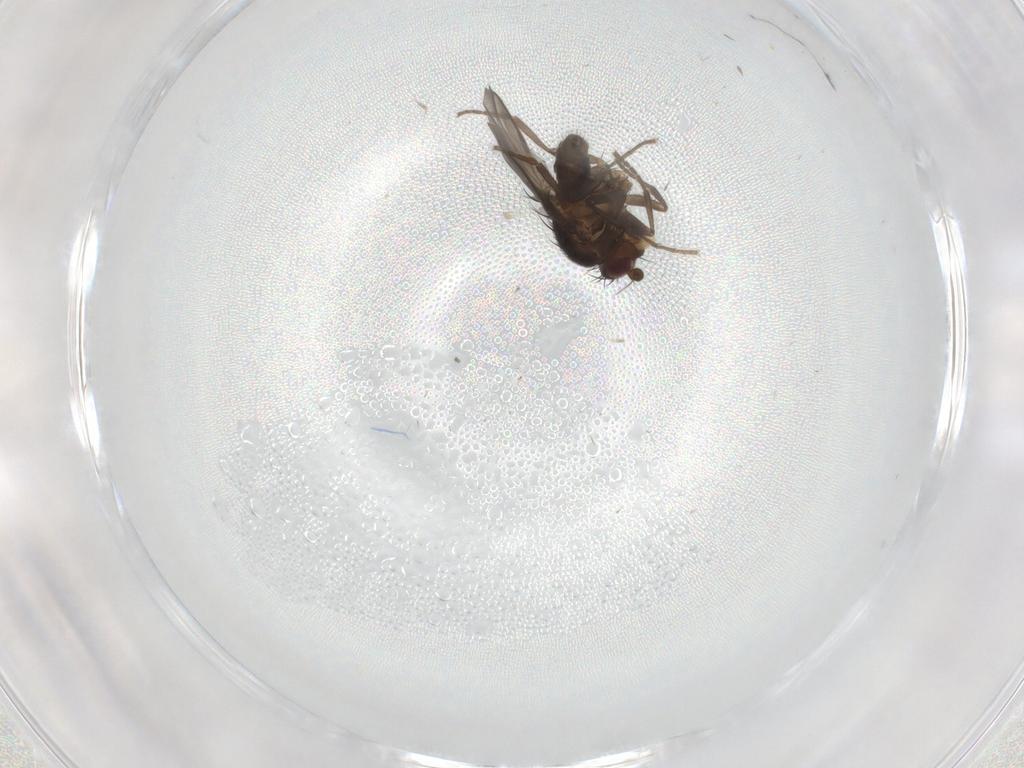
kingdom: Animalia
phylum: Arthropoda
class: Insecta
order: Diptera
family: Sphaeroceridae
